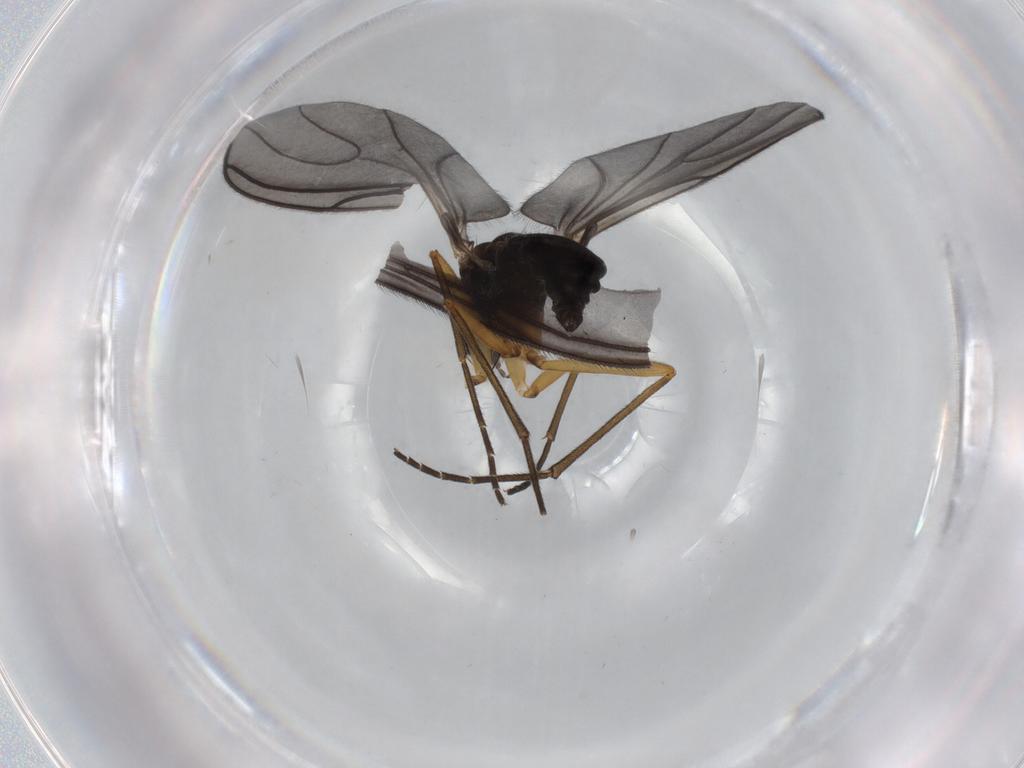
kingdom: Animalia
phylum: Arthropoda
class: Insecta
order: Diptera
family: Sciaridae
